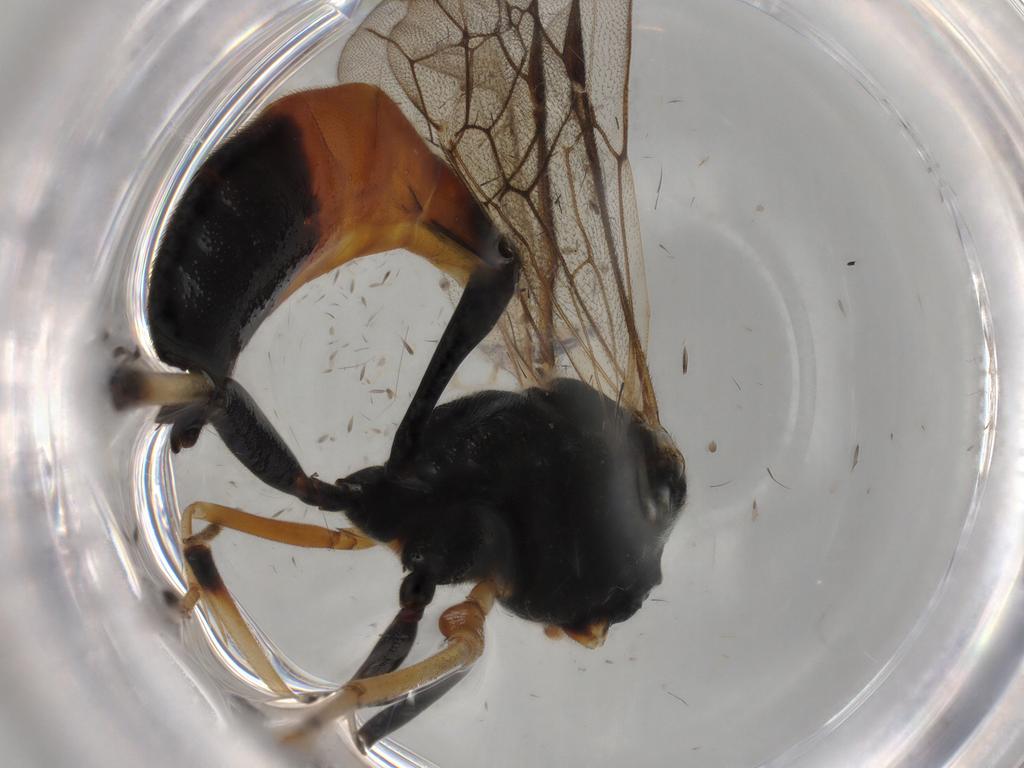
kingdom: Animalia
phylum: Arthropoda
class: Insecta
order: Hymenoptera
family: Ichneumonidae
